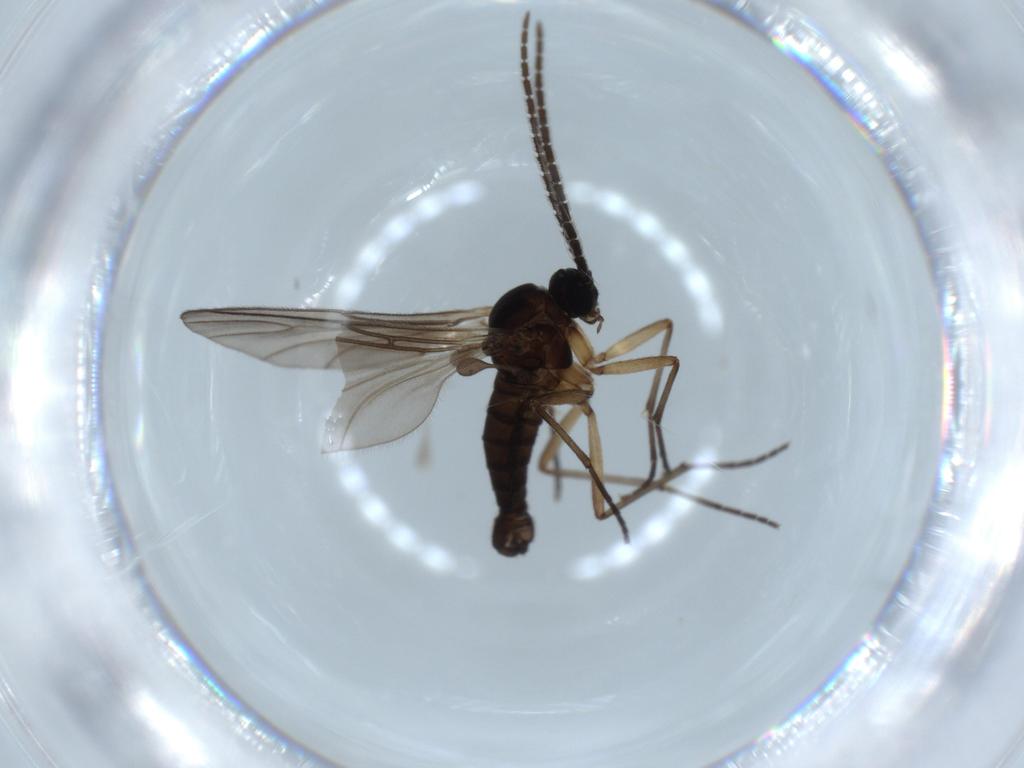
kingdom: Animalia
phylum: Arthropoda
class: Insecta
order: Diptera
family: Sciaridae
